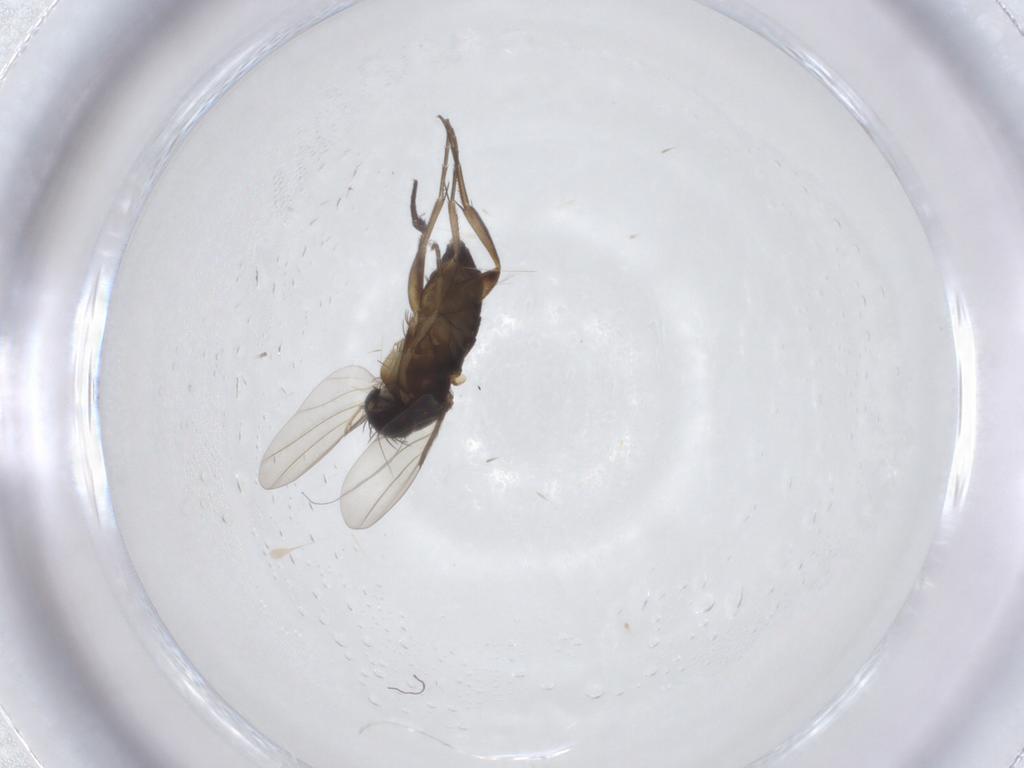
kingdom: Animalia
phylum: Arthropoda
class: Insecta
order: Diptera
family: Phoridae
